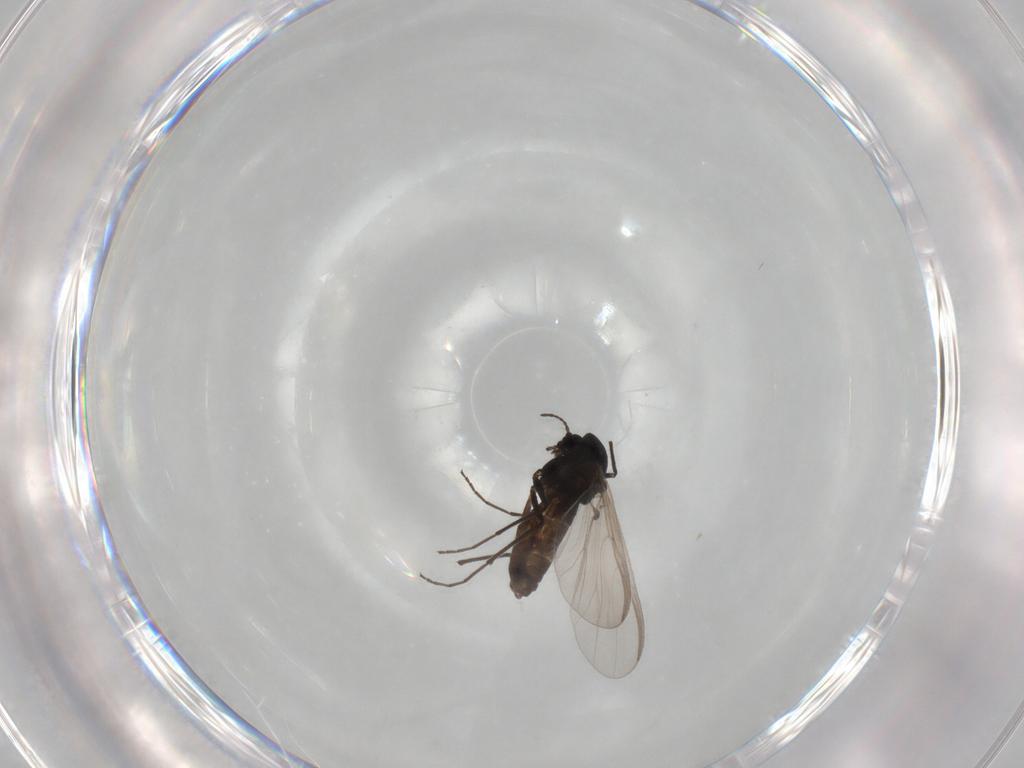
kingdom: Animalia
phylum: Arthropoda
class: Insecta
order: Diptera
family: Chironomidae
